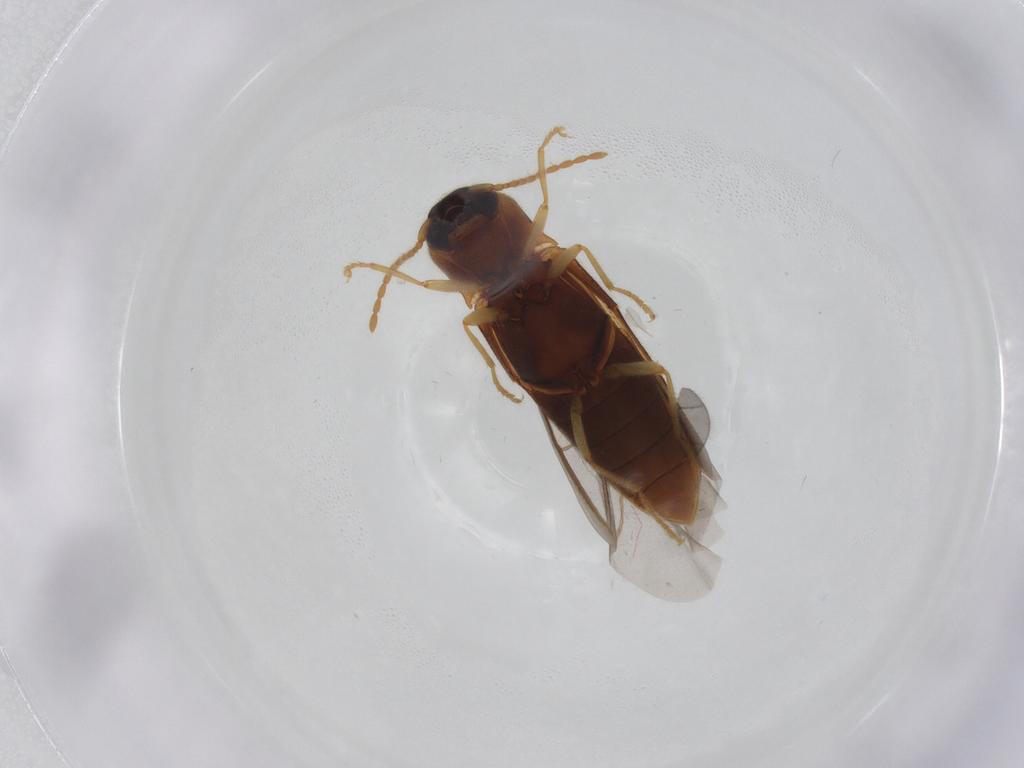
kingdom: Animalia
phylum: Arthropoda
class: Insecta
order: Coleoptera
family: Elateridae
